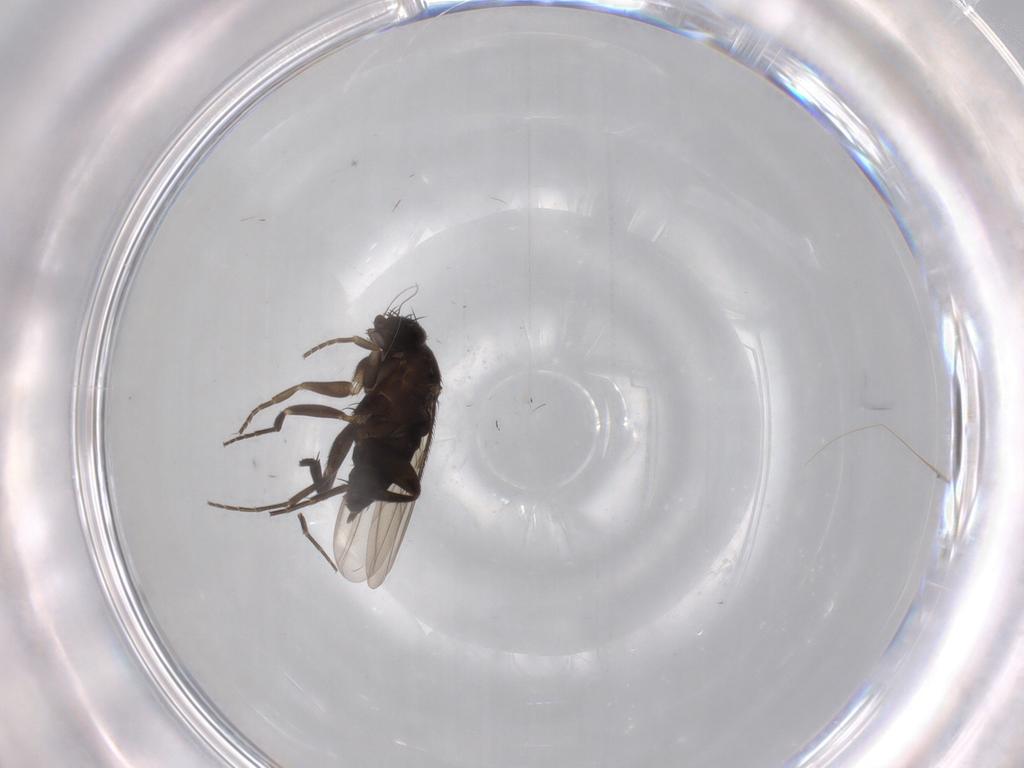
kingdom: Animalia
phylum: Arthropoda
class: Insecta
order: Diptera
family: Phoridae
